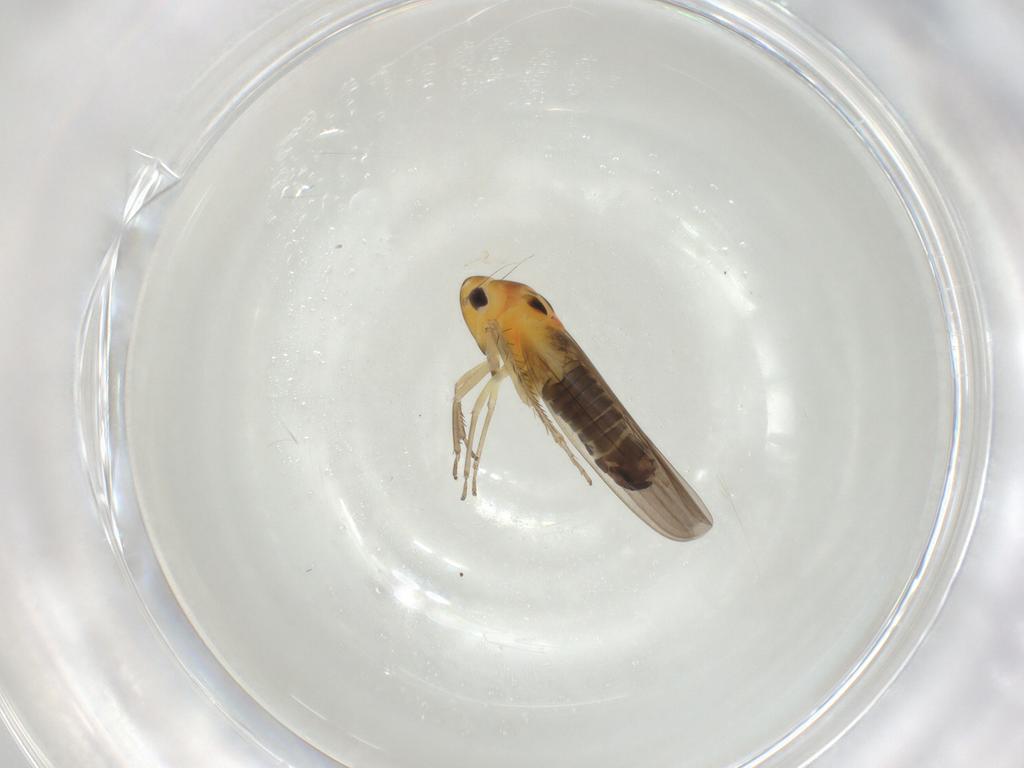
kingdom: Animalia
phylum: Arthropoda
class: Insecta
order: Hemiptera
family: Cicadellidae
